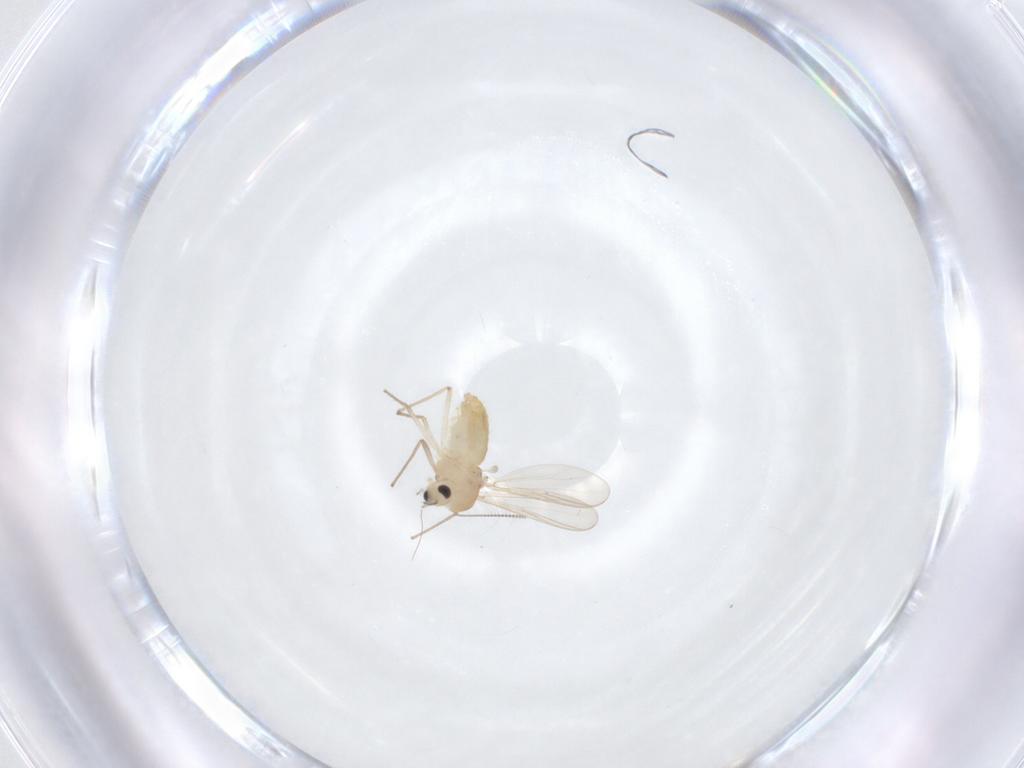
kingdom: Animalia
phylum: Arthropoda
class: Insecta
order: Diptera
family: Chironomidae
